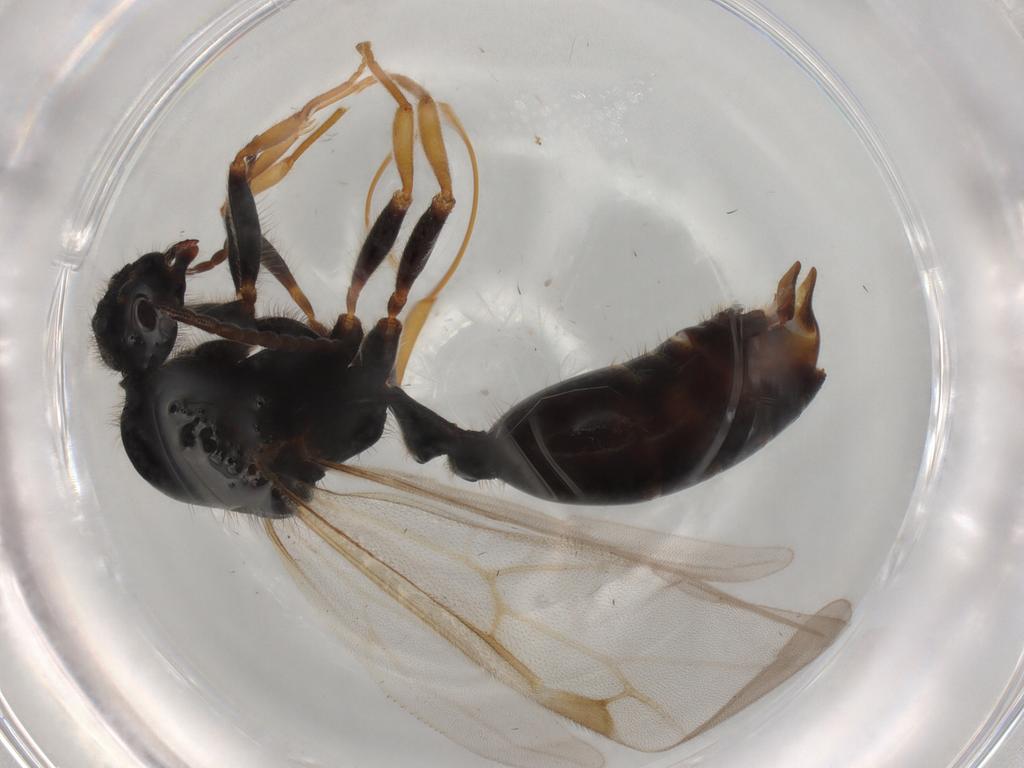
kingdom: Animalia
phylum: Arthropoda
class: Insecta
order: Hymenoptera
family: Formicidae
